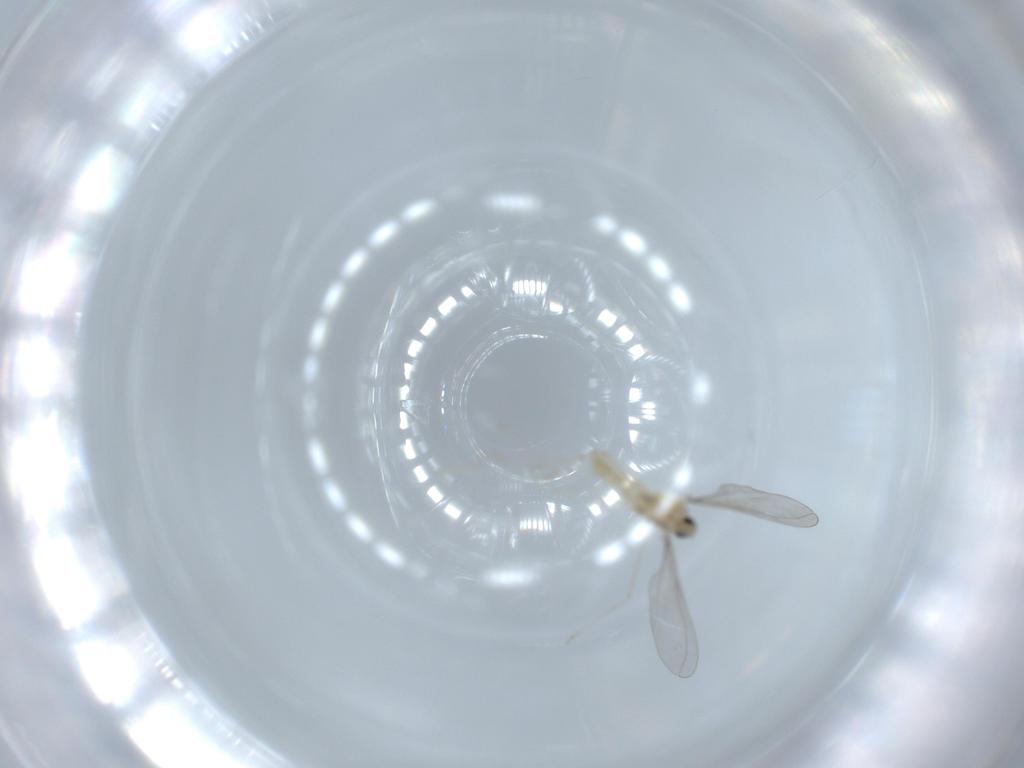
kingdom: Animalia
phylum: Arthropoda
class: Insecta
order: Diptera
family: Cecidomyiidae
